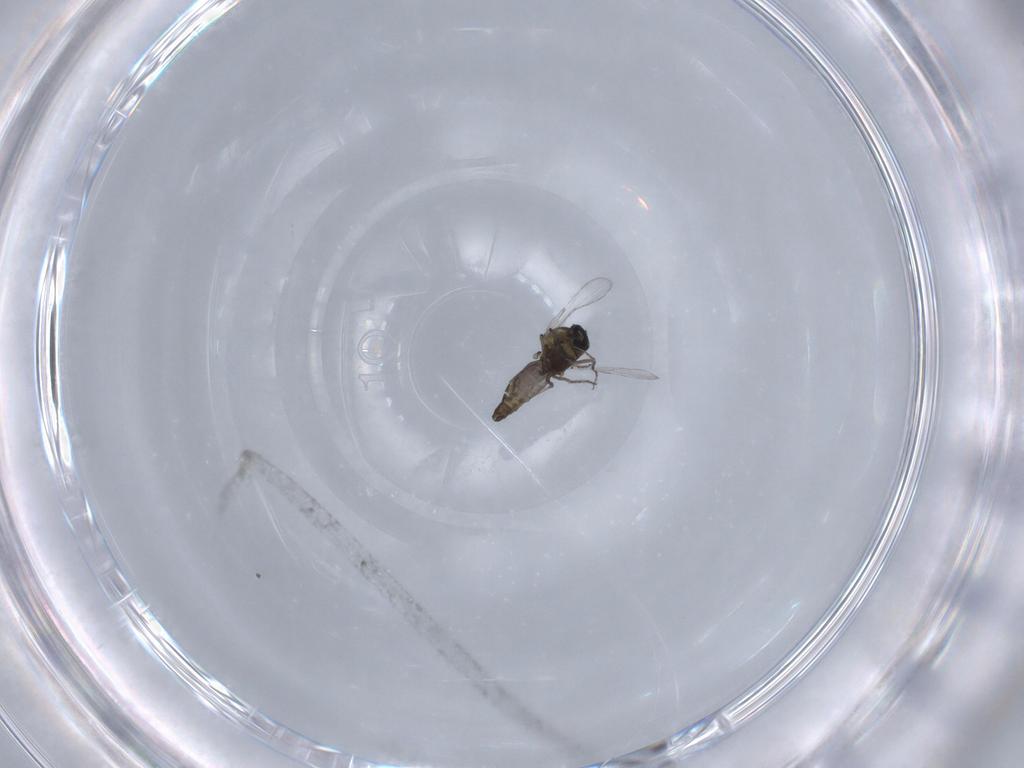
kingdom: Animalia
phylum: Arthropoda
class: Insecta
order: Diptera
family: Ceratopogonidae
